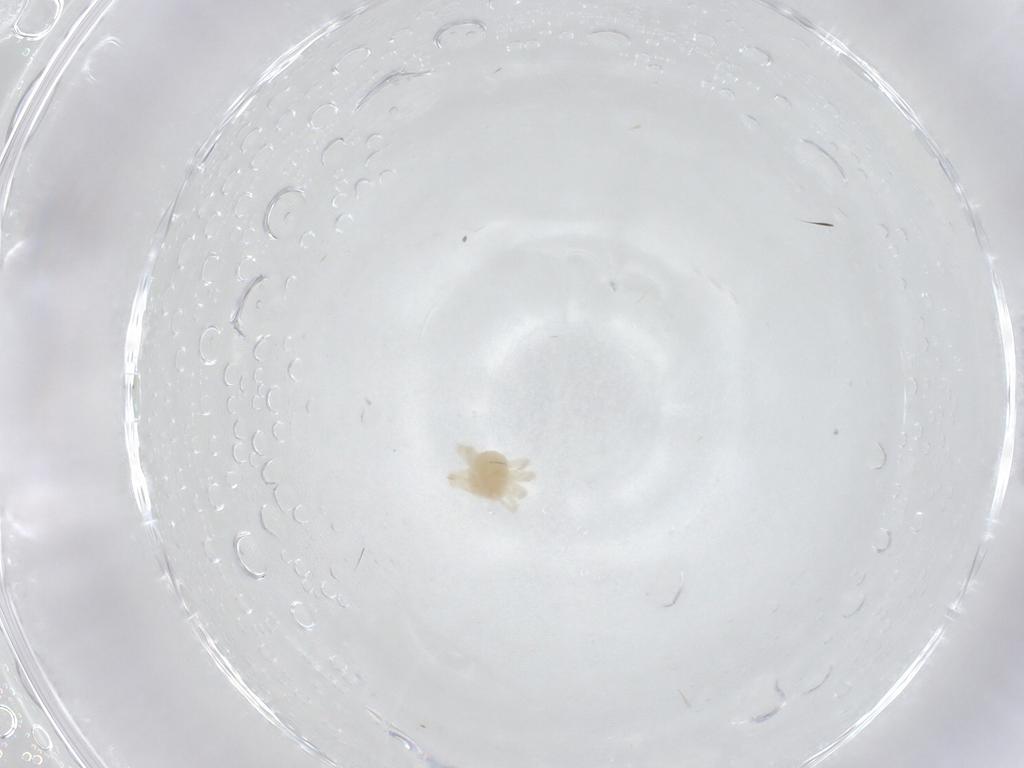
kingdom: Animalia
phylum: Arthropoda
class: Arachnida
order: Trombidiformes
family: Anystidae
